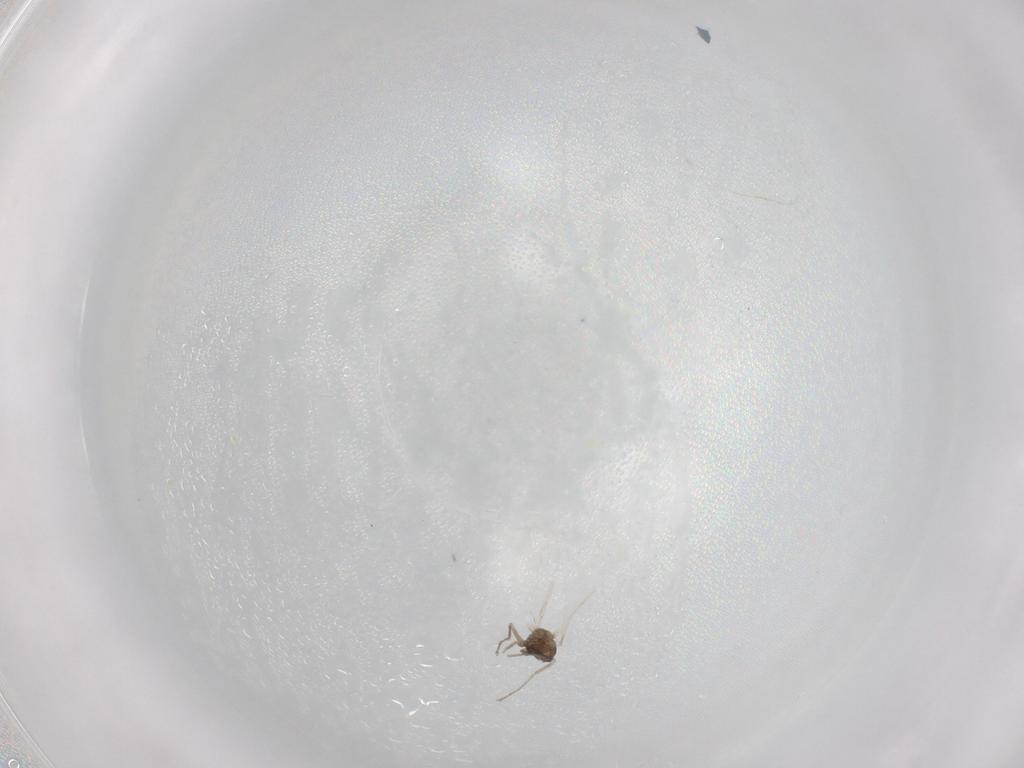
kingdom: Animalia
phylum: Arthropoda
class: Insecta
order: Diptera
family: Cecidomyiidae
